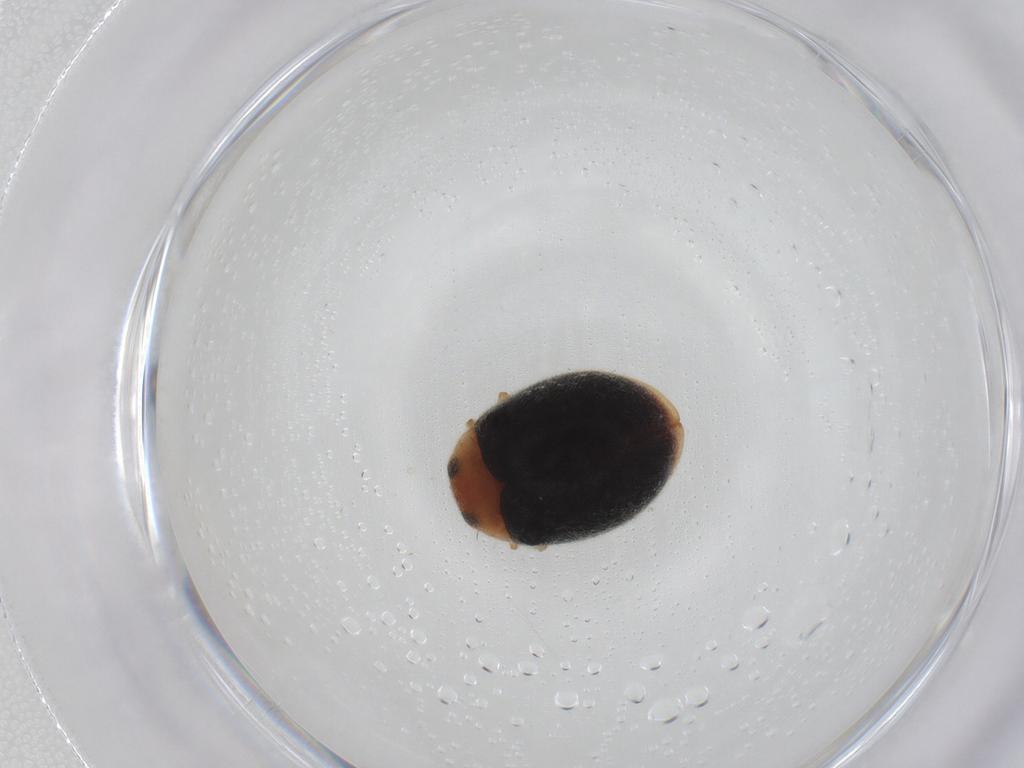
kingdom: Animalia
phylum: Arthropoda
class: Insecta
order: Coleoptera
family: Coccinellidae
